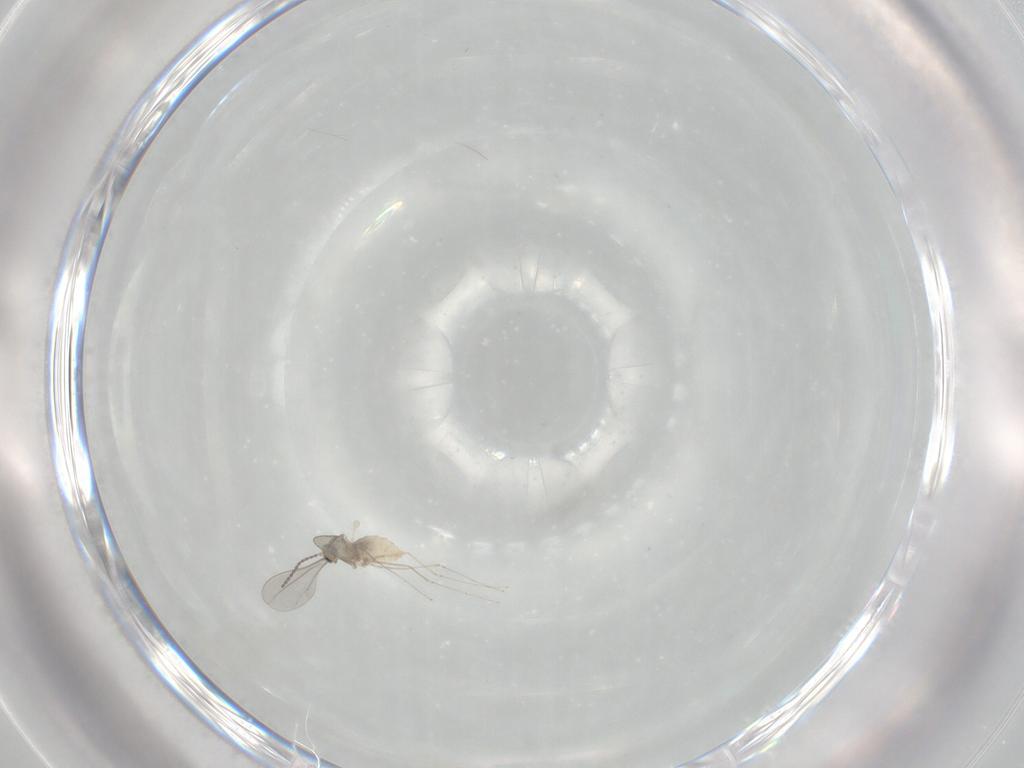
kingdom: Animalia
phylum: Arthropoda
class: Insecta
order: Diptera
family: Cecidomyiidae
